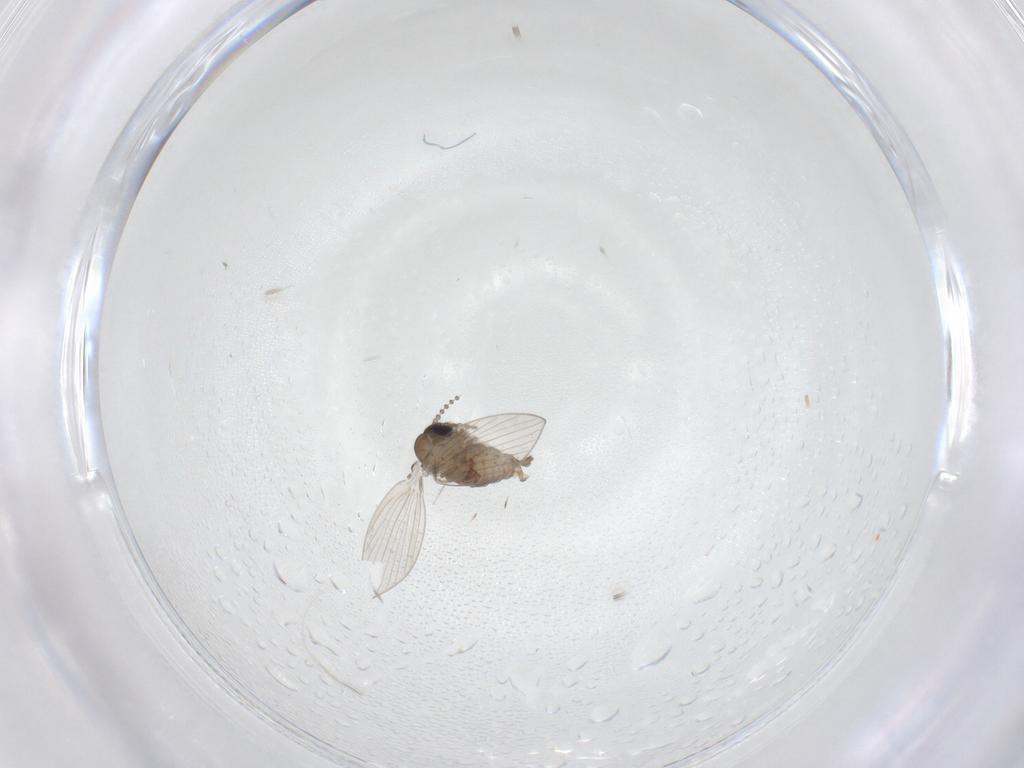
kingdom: Animalia
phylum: Arthropoda
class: Insecta
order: Diptera
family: Psychodidae
